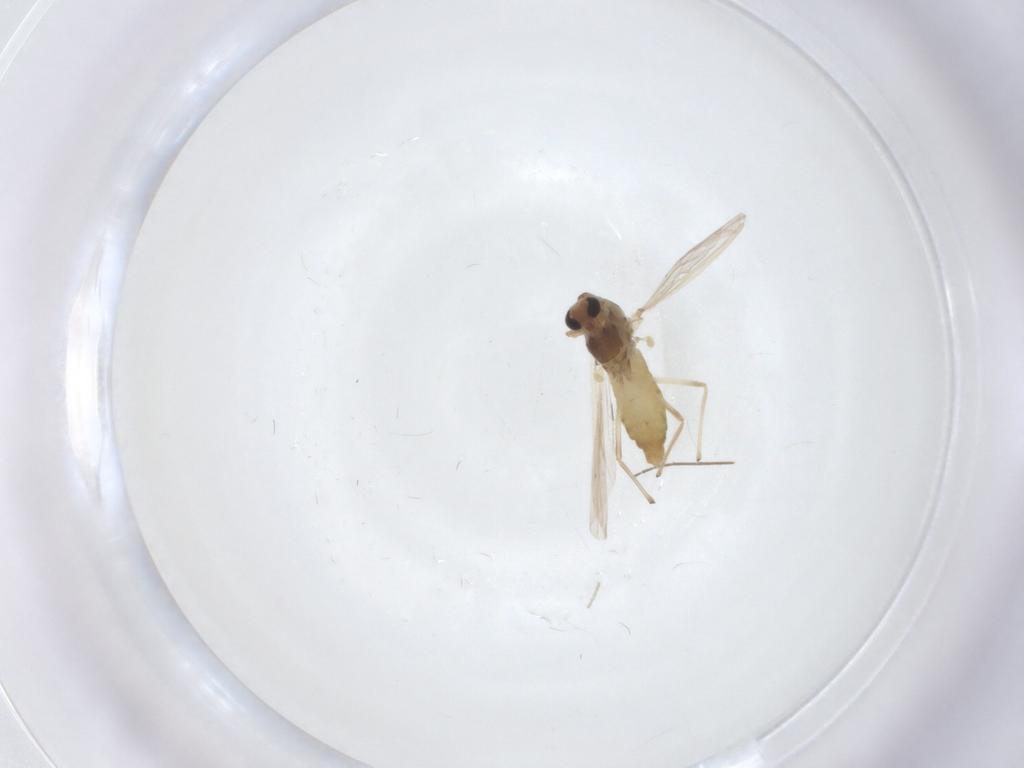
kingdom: Animalia
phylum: Arthropoda
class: Insecta
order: Diptera
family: Chironomidae
